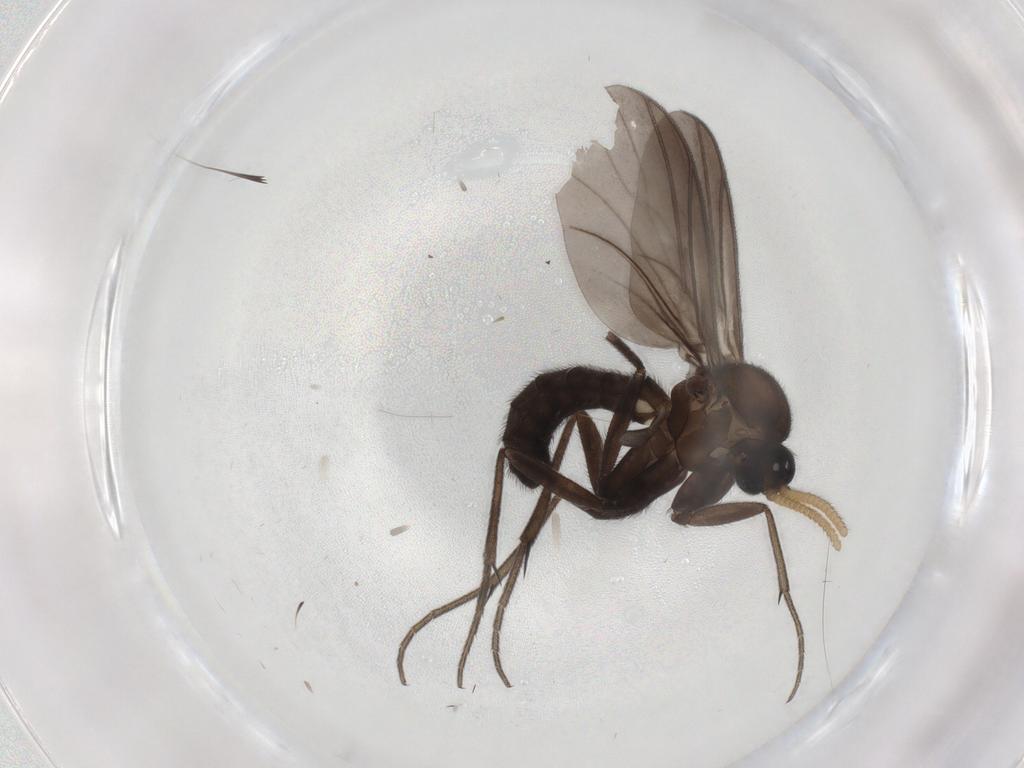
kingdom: Animalia
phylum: Arthropoda
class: Insecta
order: Diptera
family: Mycetophilidae
